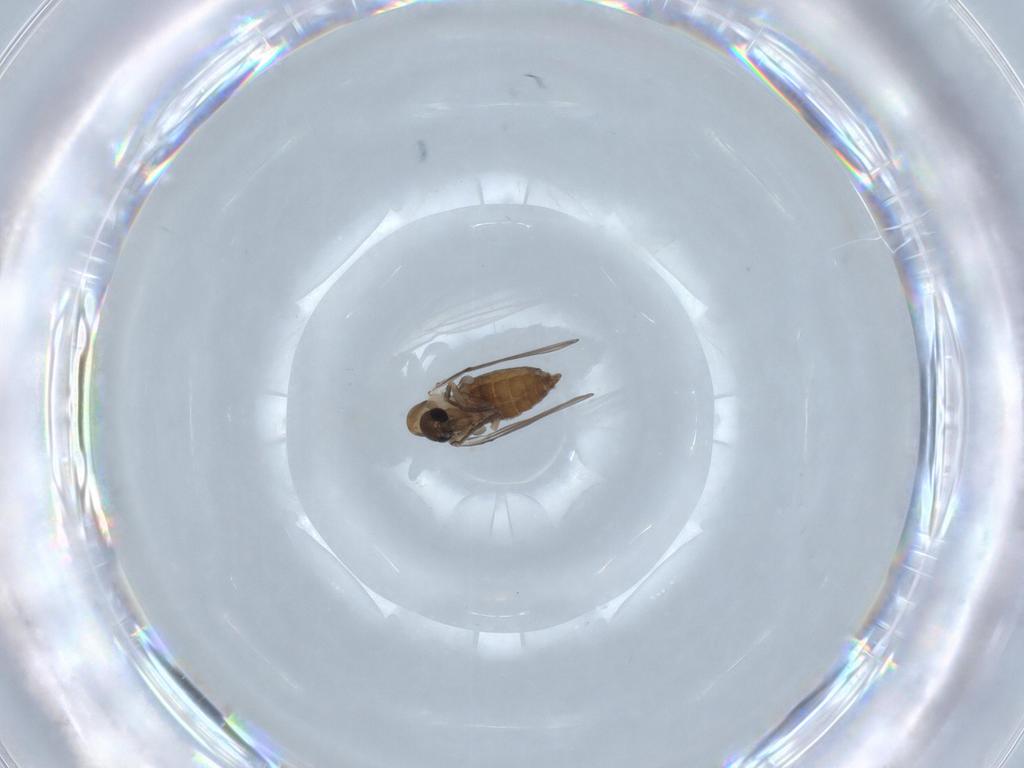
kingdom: Animalia
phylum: Arthropoda
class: Insecta
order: Diptera
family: Psychodidae
